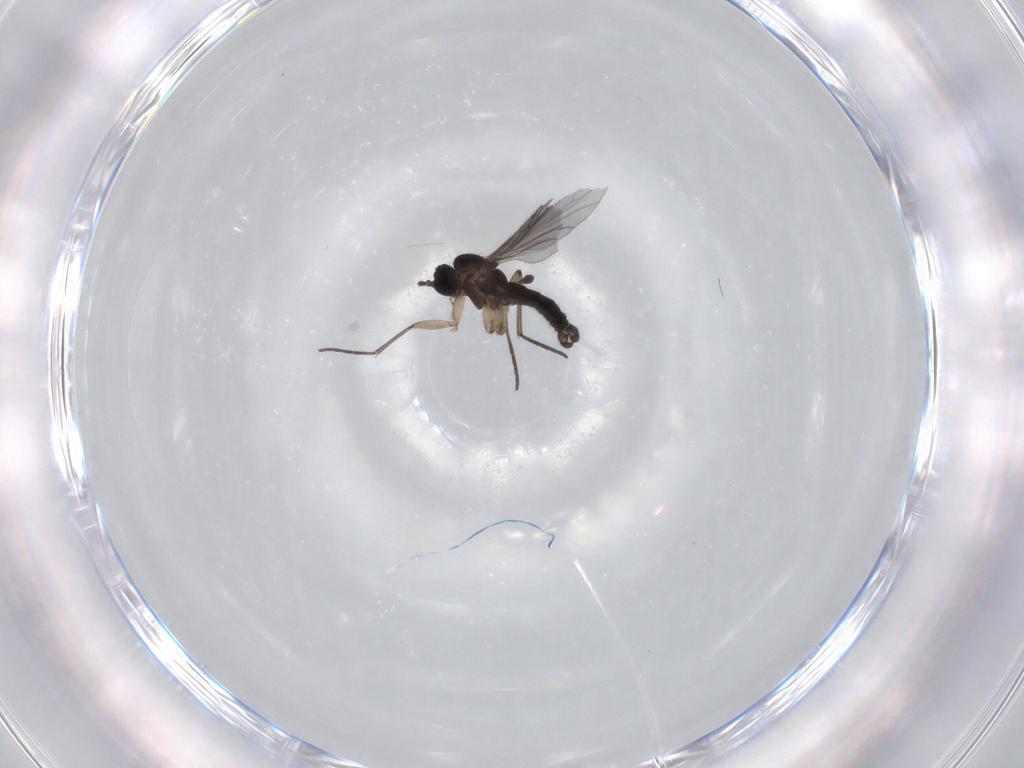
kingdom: Animalia
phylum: Arthropoda
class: Insecta
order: Diptera
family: Sciaridae
